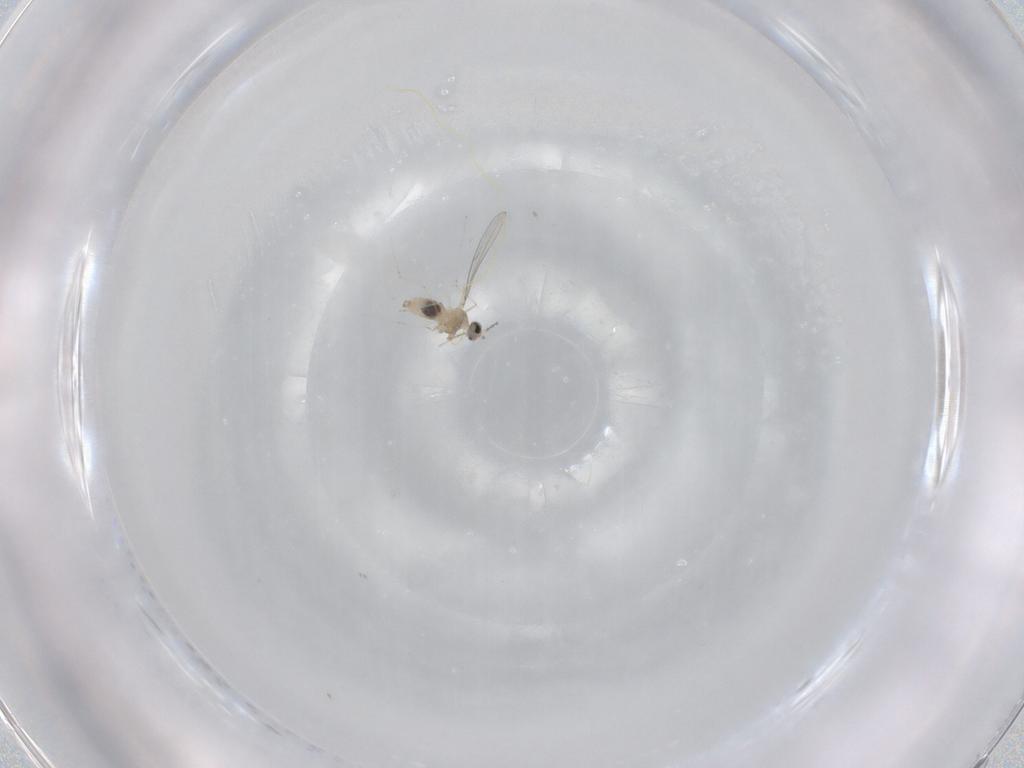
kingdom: Animalia
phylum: Arthropoda
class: Insecta
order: Diptera
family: Cecidomyiidae
